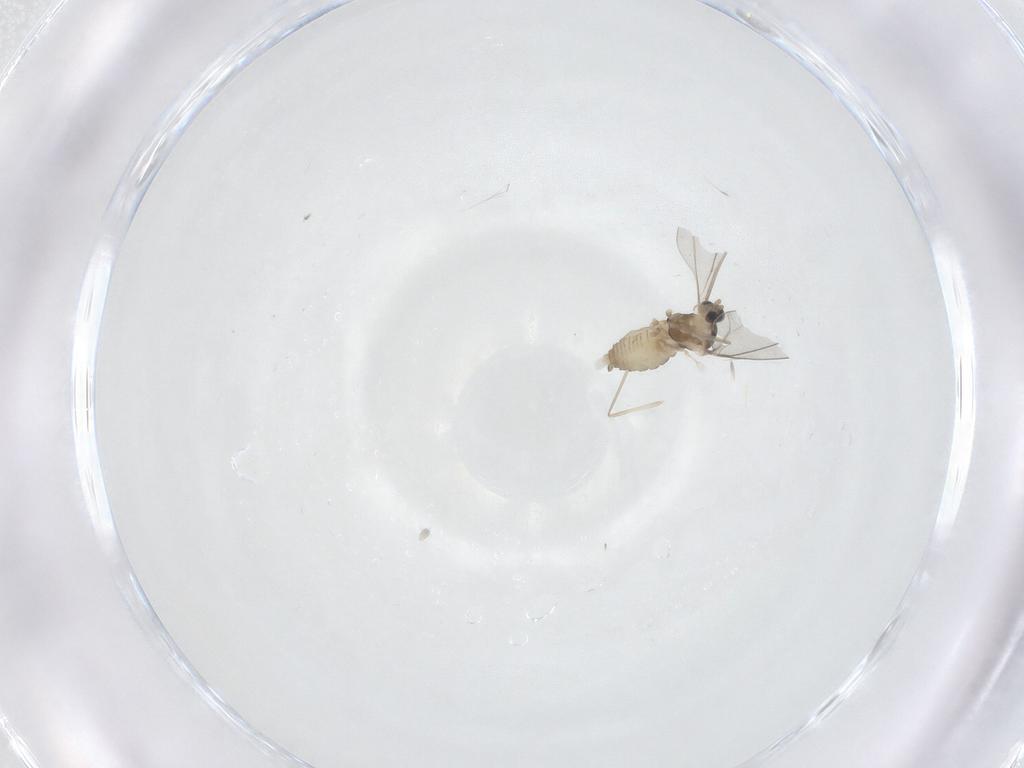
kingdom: Animalia
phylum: Arthropoda
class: Insecta
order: Diptera
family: Cecidomyiidae
